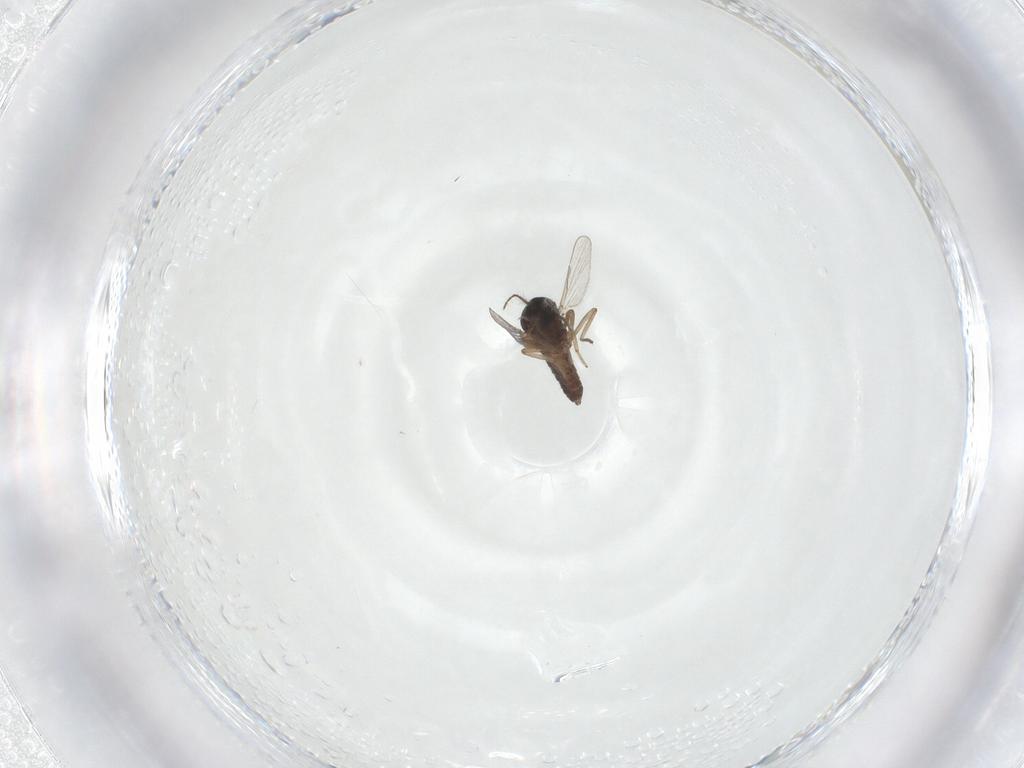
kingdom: Animalia
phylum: Arthropoda
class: Insecta
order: Diptera
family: Ceratopogonidae
